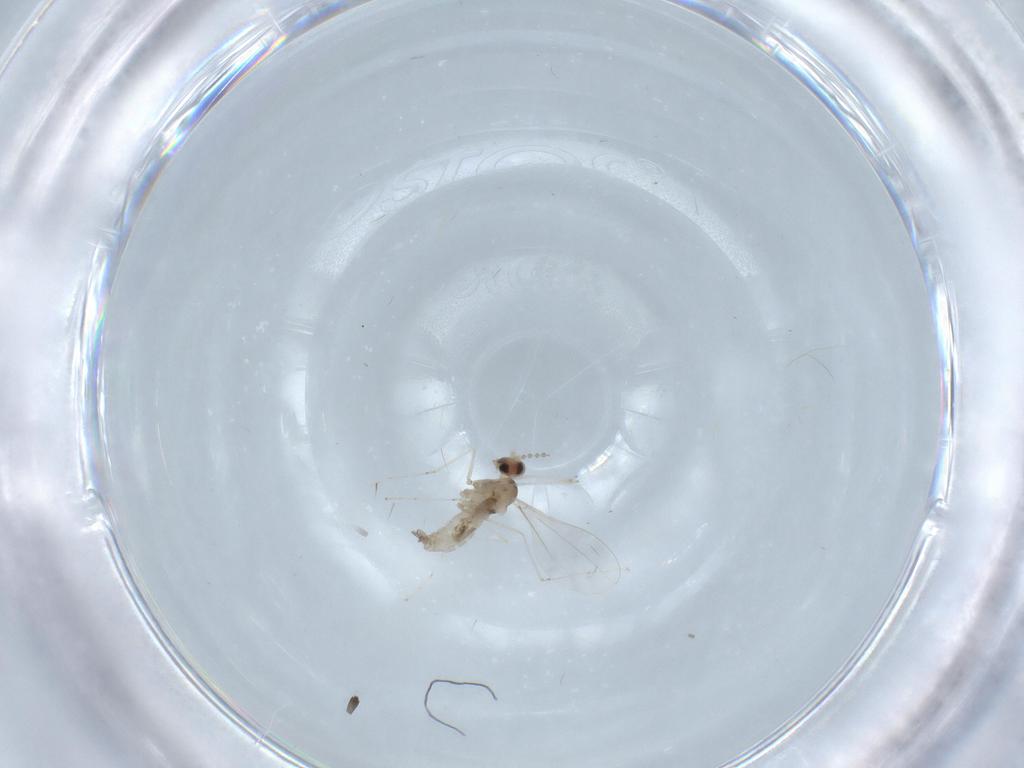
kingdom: Animalia
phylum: Arthropoda
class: Insecta
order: Diptera
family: Cecidomyiidae
